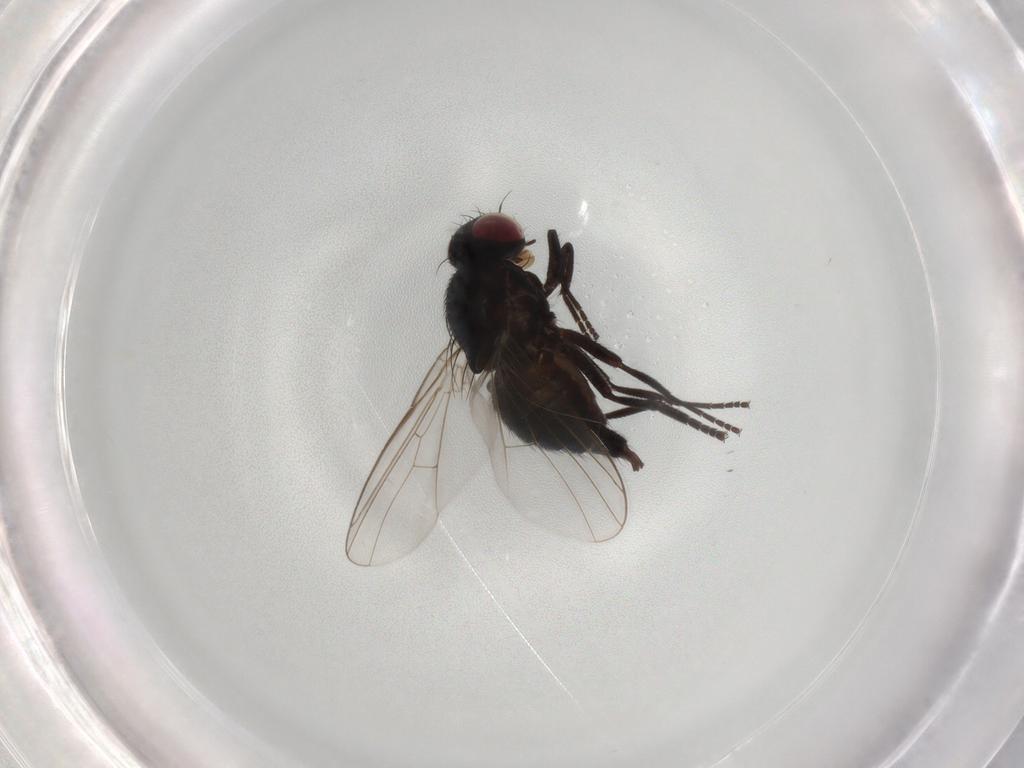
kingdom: Animalia
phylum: Arthropoda
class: Insecta
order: Diptera
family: Agromyzidae
